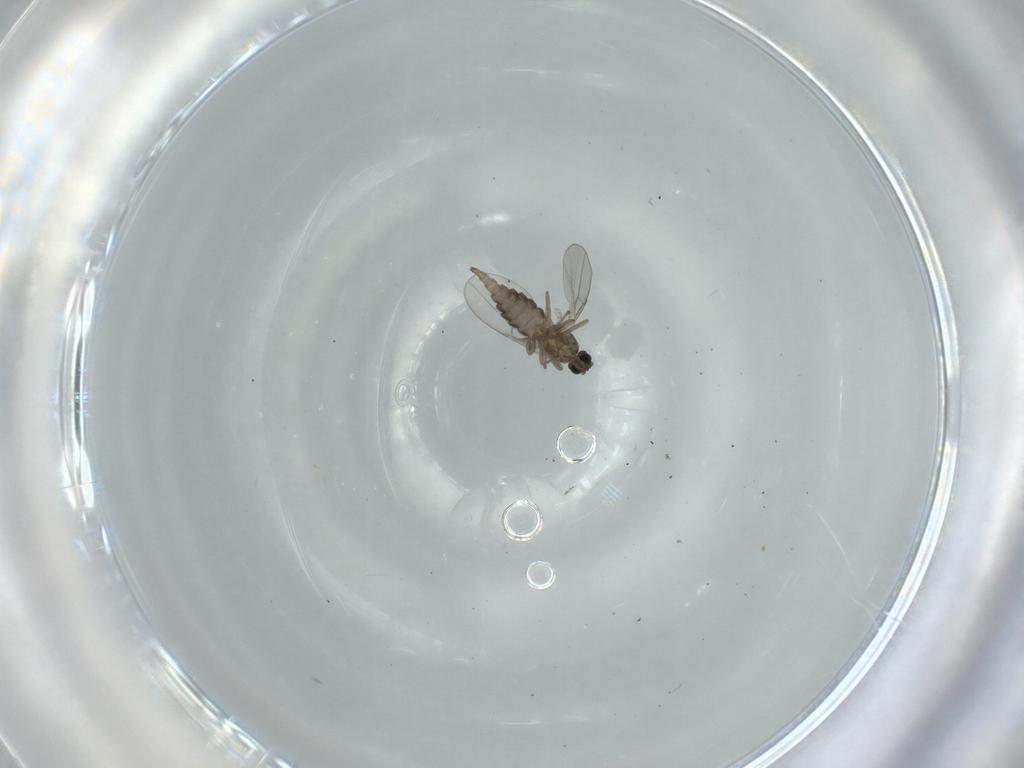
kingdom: Animalia
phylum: Arthropoda
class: Insecta
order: Diptera
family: Cecidomyiidae
